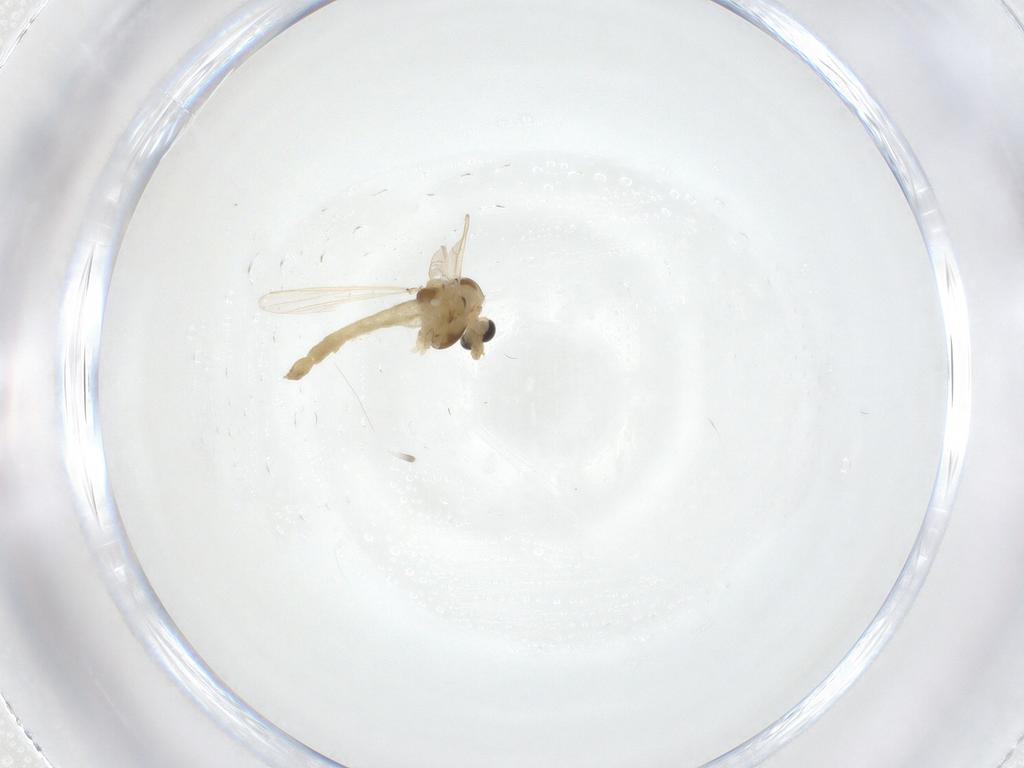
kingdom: Animalia
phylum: Arthropoda
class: Insecta
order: Diptera
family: Chironomidae
